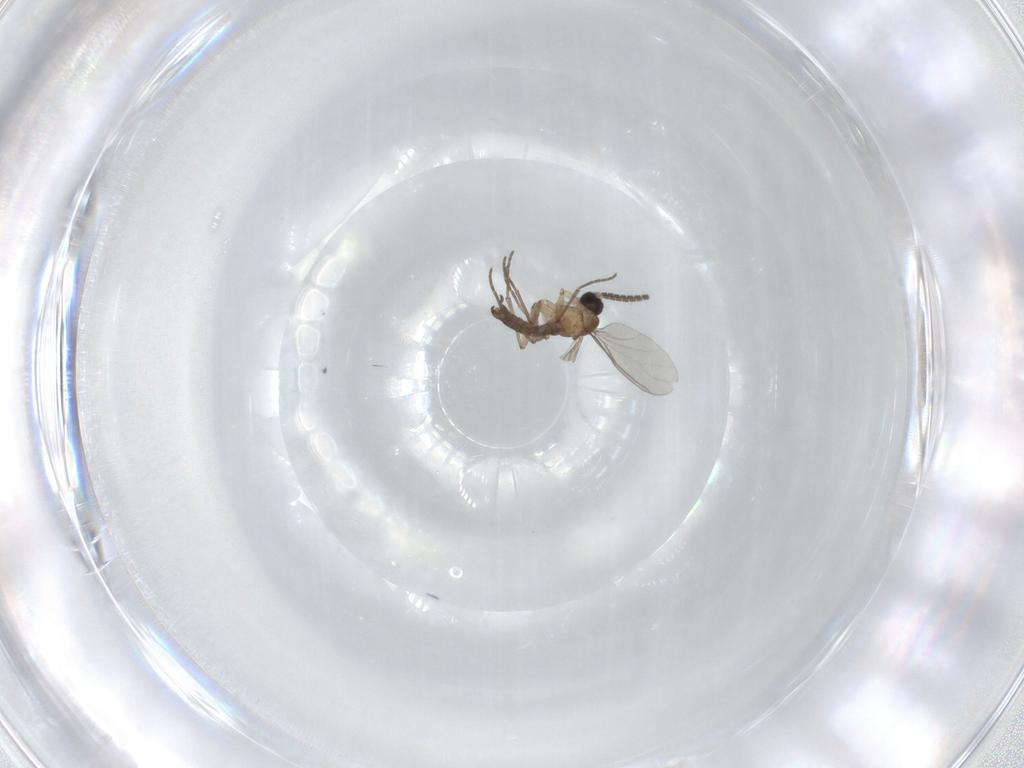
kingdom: Animalia
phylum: Arthropoda
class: Insecta
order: Diptera
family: Sciaridae
